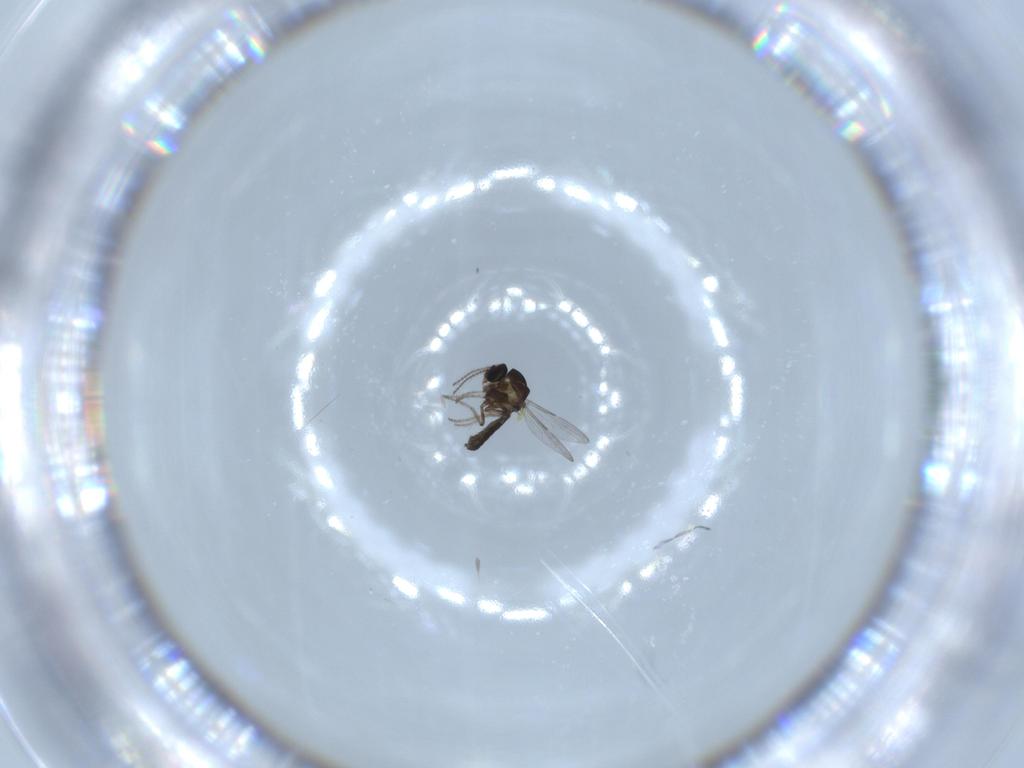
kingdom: Animalia
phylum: Arthropoda
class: Insecta
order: Diptera
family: Ceratopogonidae
